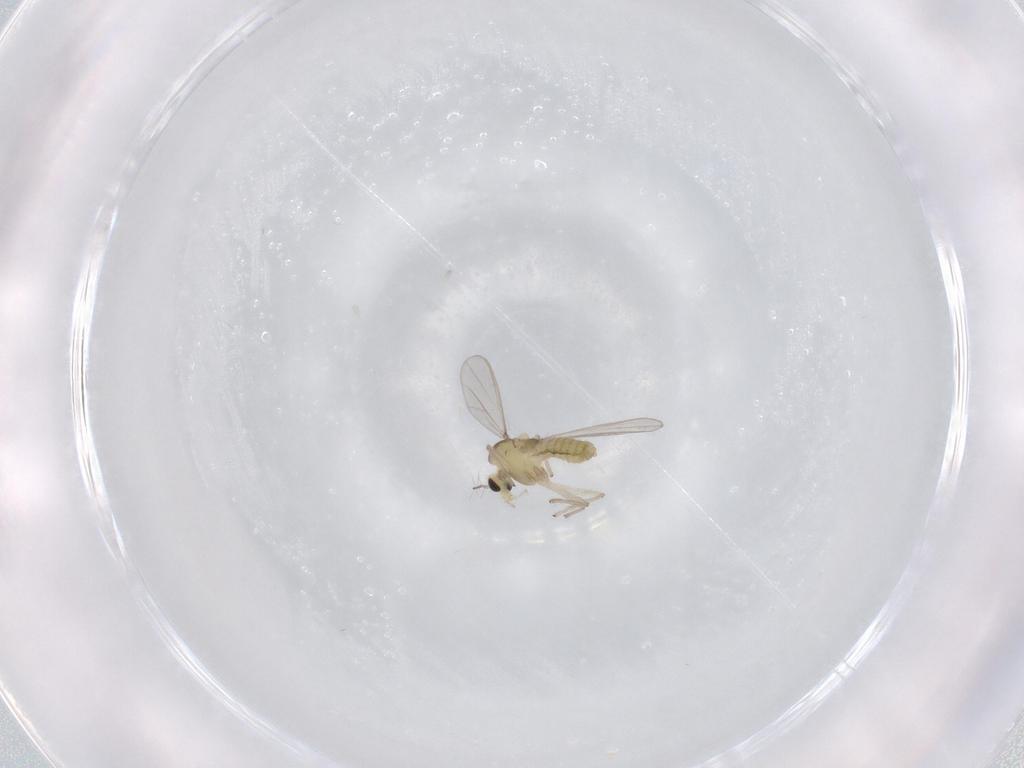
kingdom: Animalia
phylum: Arthropoda
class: Insecta
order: Diptera
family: Chironomidae
